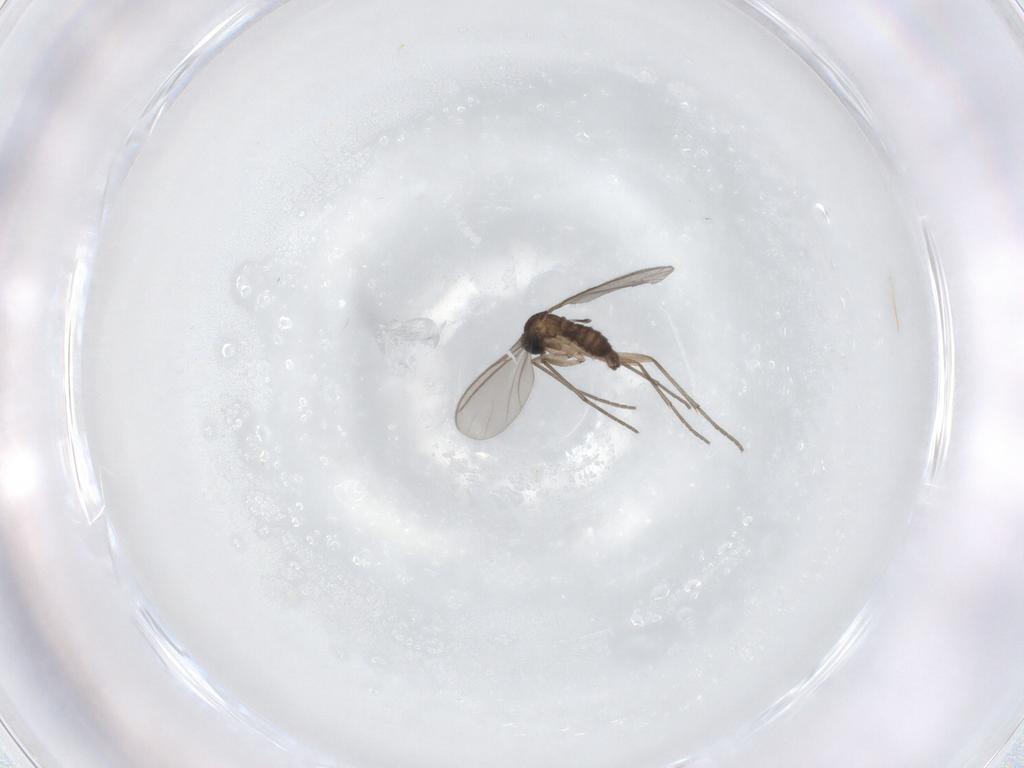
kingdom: Animalia
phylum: Arthropoda
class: Insecta
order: Diptera
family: Sciaridae
